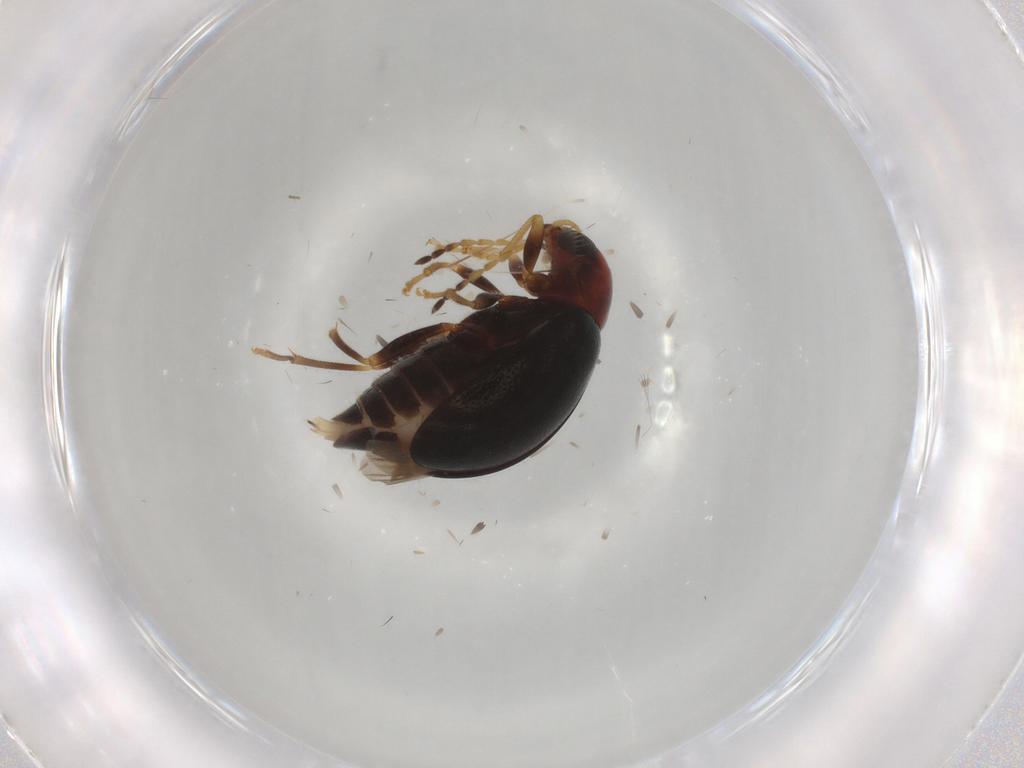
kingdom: Animalia
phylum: Arthropoda
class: Insecta
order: Coleoptera
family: Chrysomelidae
